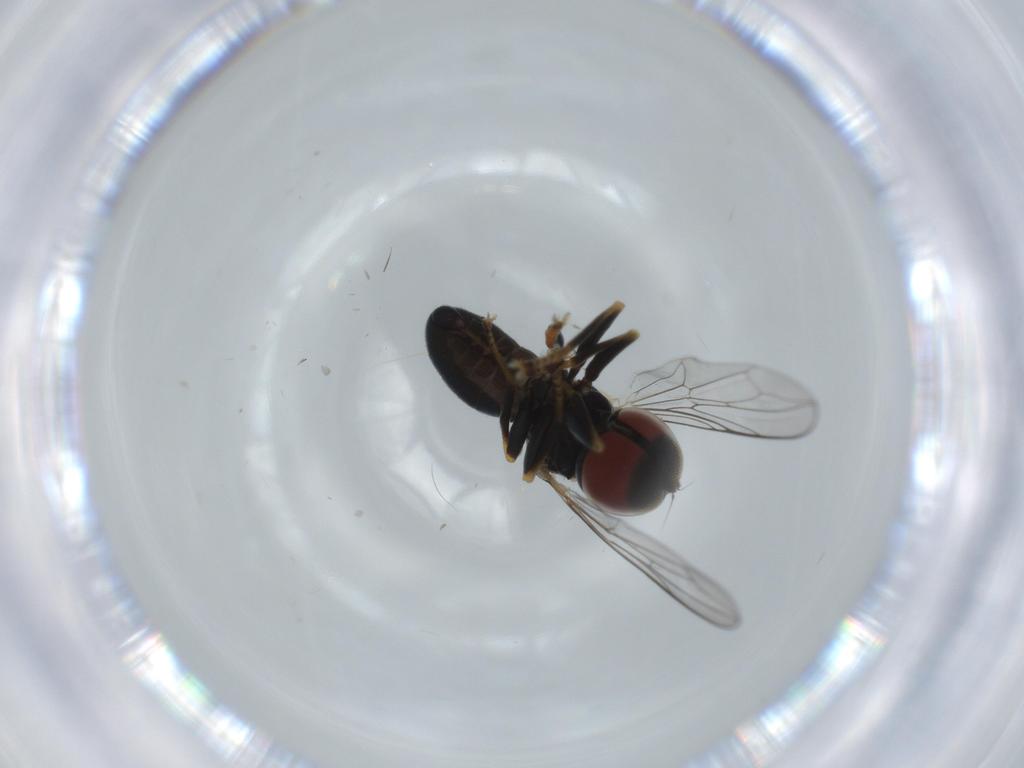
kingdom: Animalia
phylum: Arthropoda
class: Insecta
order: Diptera
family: Pipunculidae
